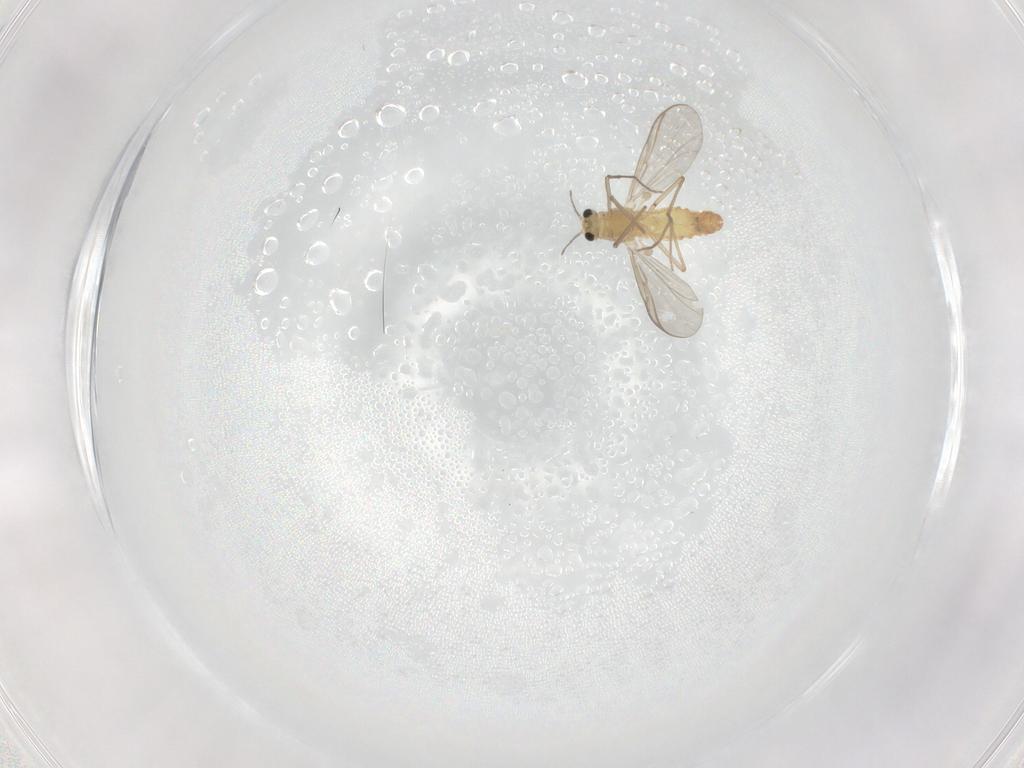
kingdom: Animalia
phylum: Arthropoda
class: Insecta
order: Diptera
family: Chironomidae
